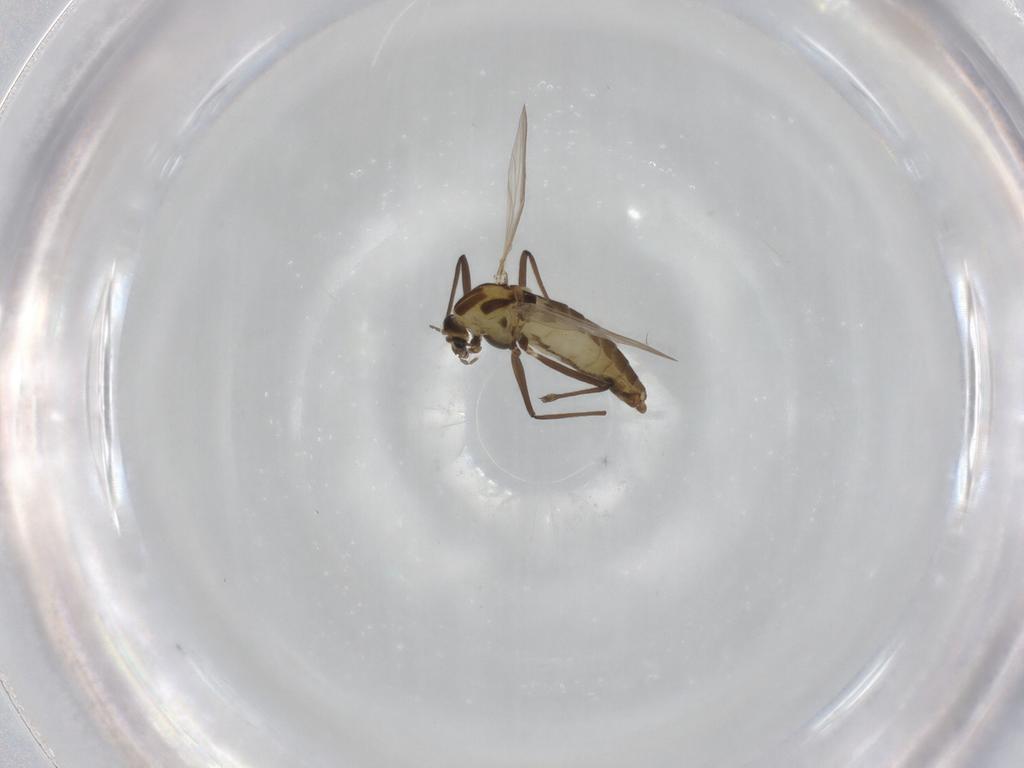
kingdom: Animalia
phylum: Arthropoda
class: Insecta
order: Diptera
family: Chironomidae
